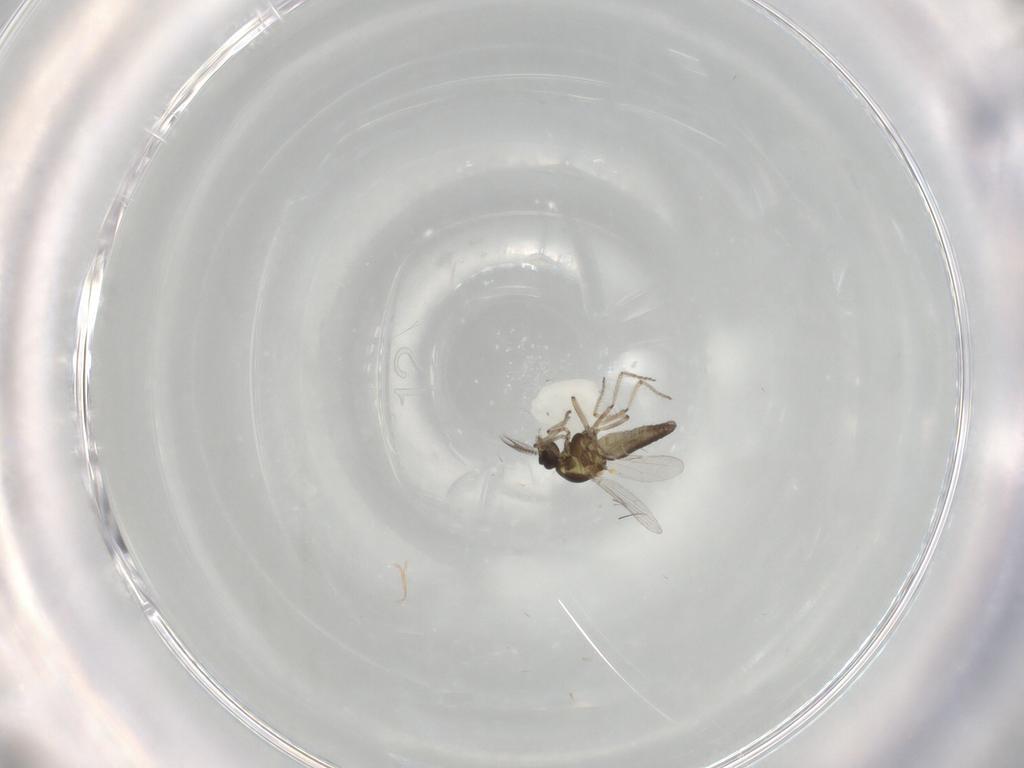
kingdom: Animalia
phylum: Arthropoda
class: Insecta
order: Diptera
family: Ceratopogonidae
